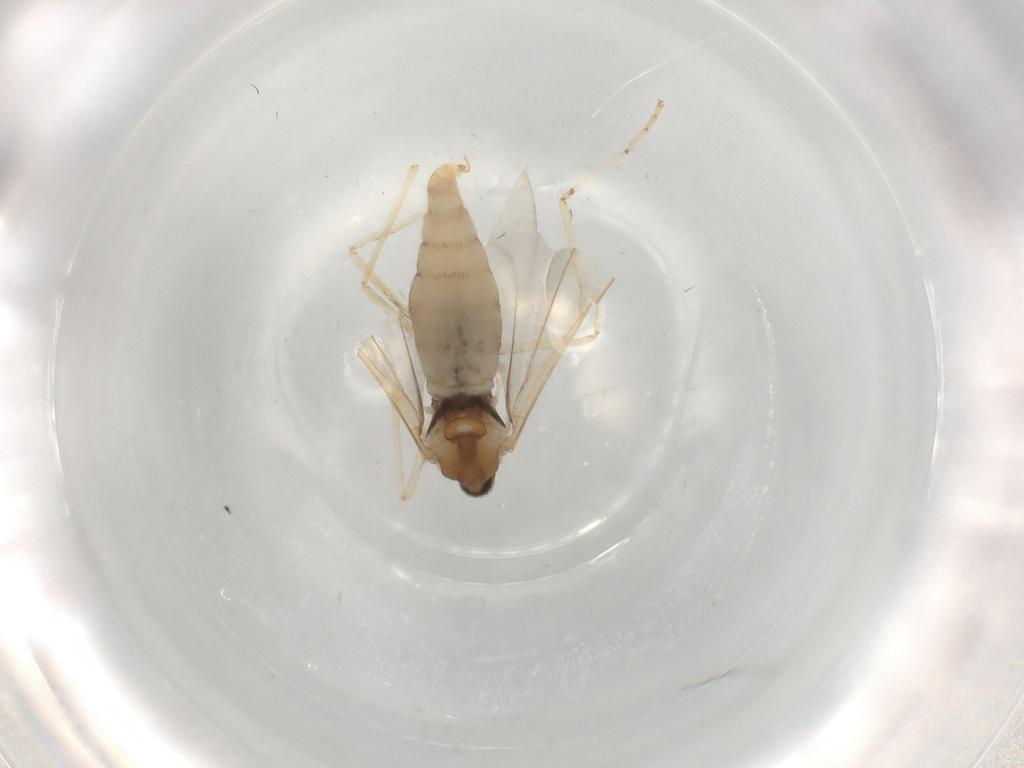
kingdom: Animalia
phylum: Arthropoda
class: Insecta
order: Diptera
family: Cecidomyiidae
